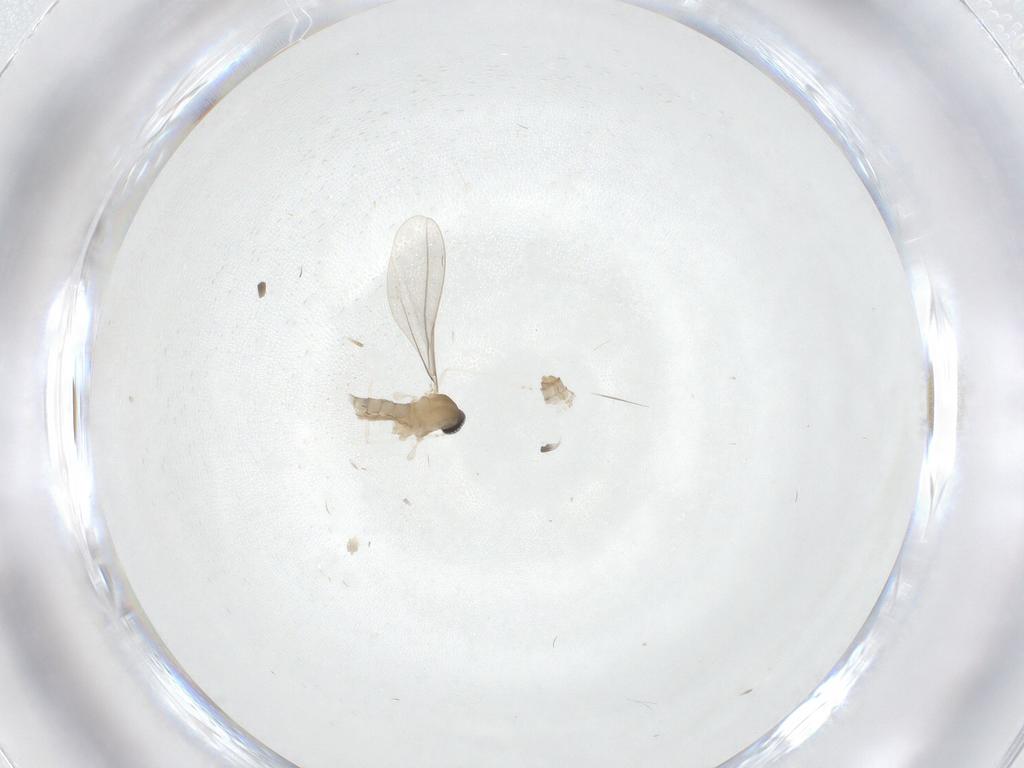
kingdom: Animalia
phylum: Arthropoda
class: Insecta
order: Diptera
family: Cecidomyiidae
